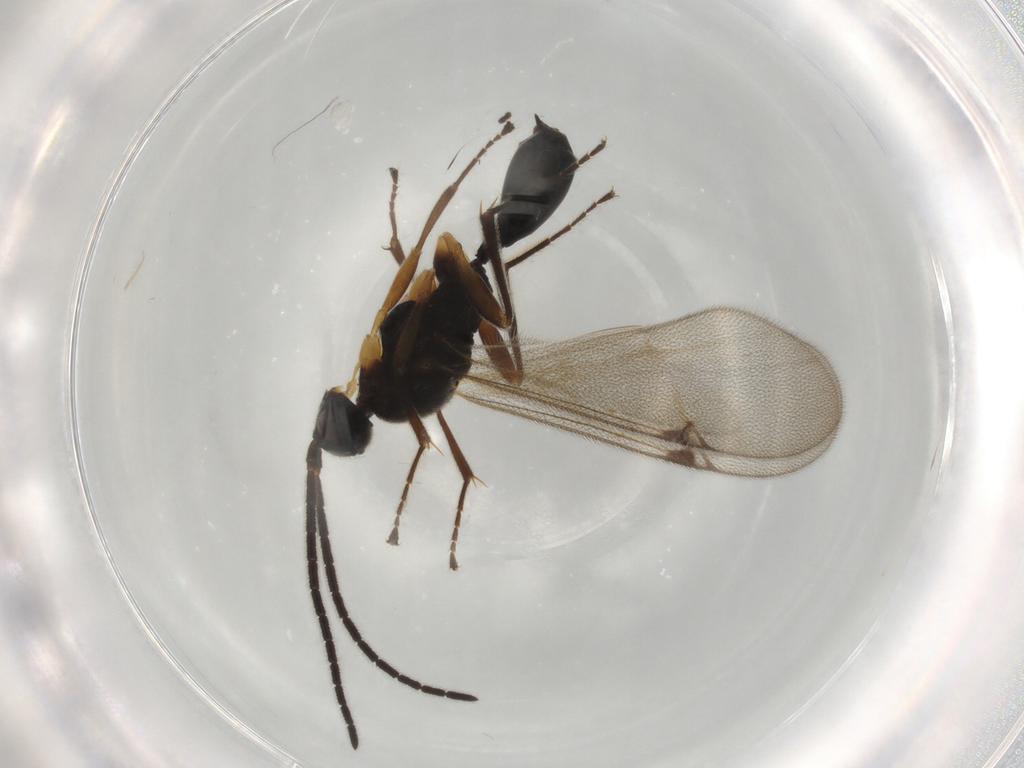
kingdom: Animalia
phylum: Arthropoda
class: Insecta
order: Hymenoptera
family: Proctotrupidae
